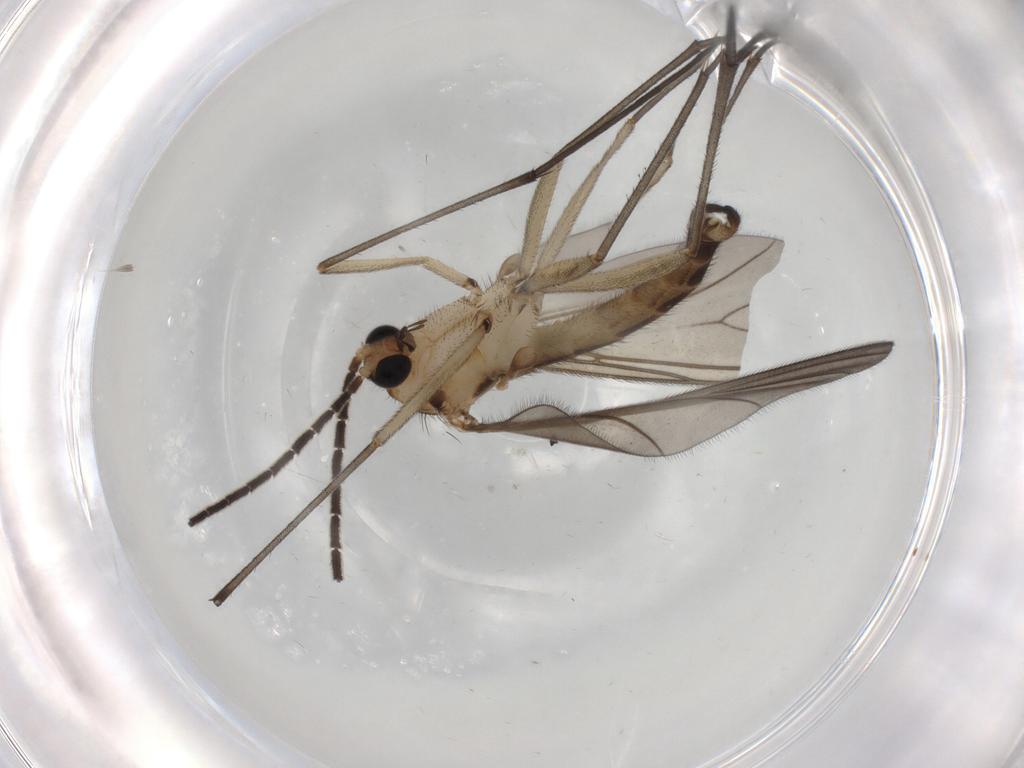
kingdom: Animalia
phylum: Arthropoda
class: Insecta
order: Diptera
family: Sciaridae
